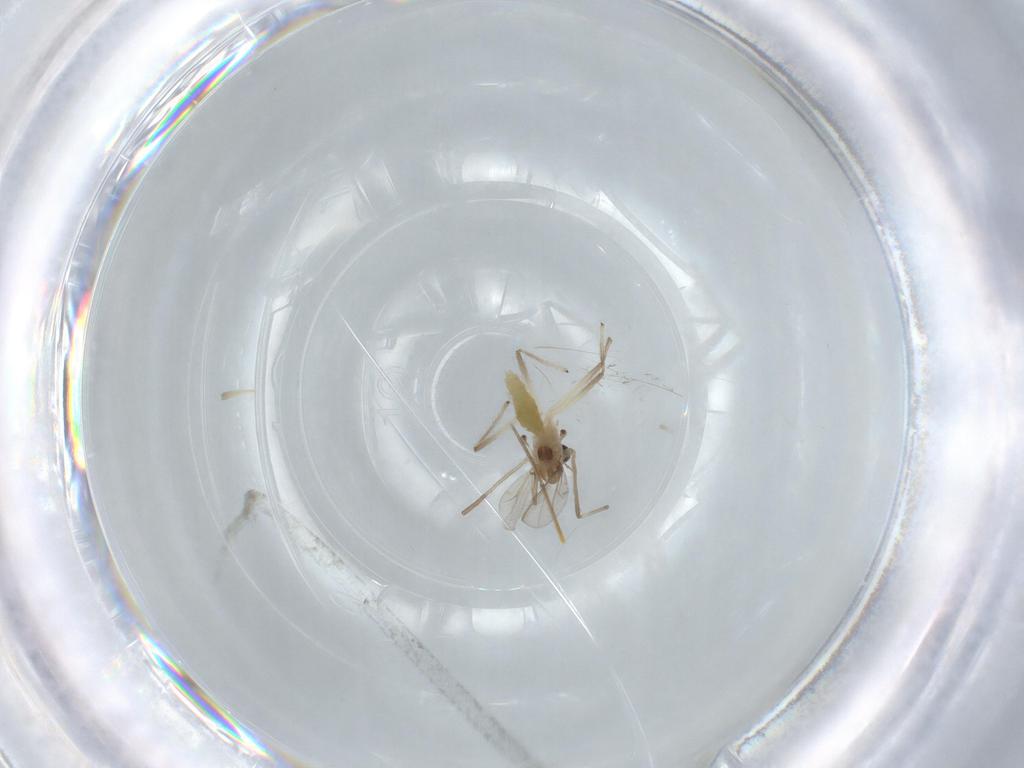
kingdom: Animalia
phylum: Arthropoda
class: Insecta
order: Diptera
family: Chironomidae
